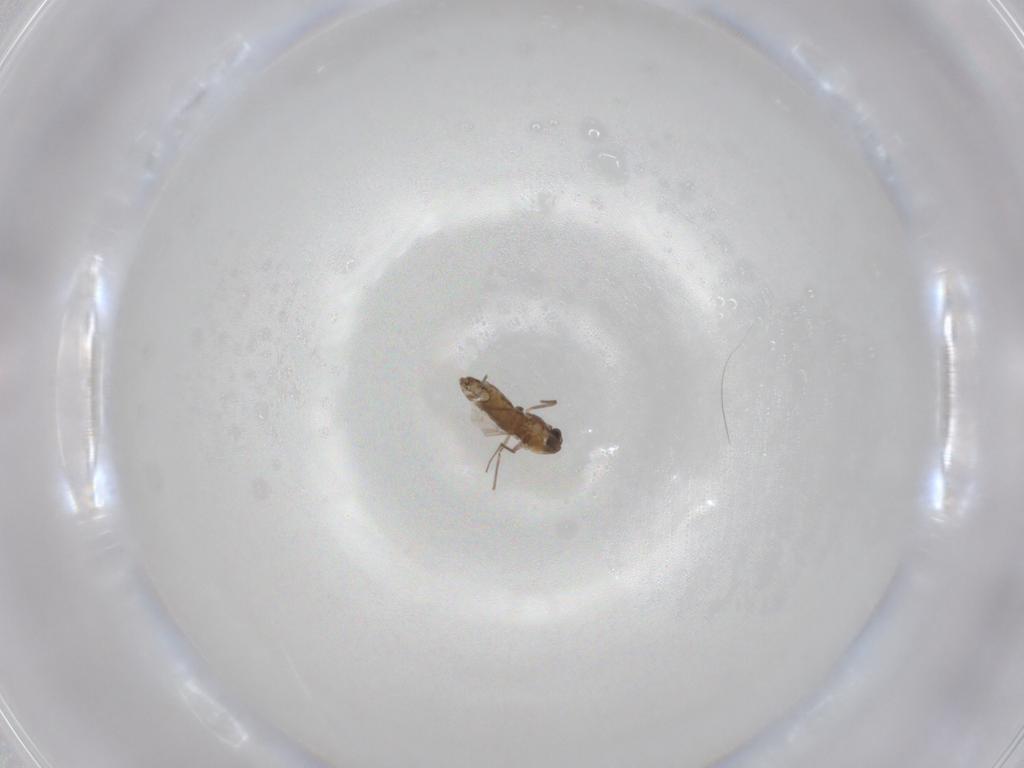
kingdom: Animalia
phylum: Arthropoda
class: Insecta
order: Diptera
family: Chironomidae
